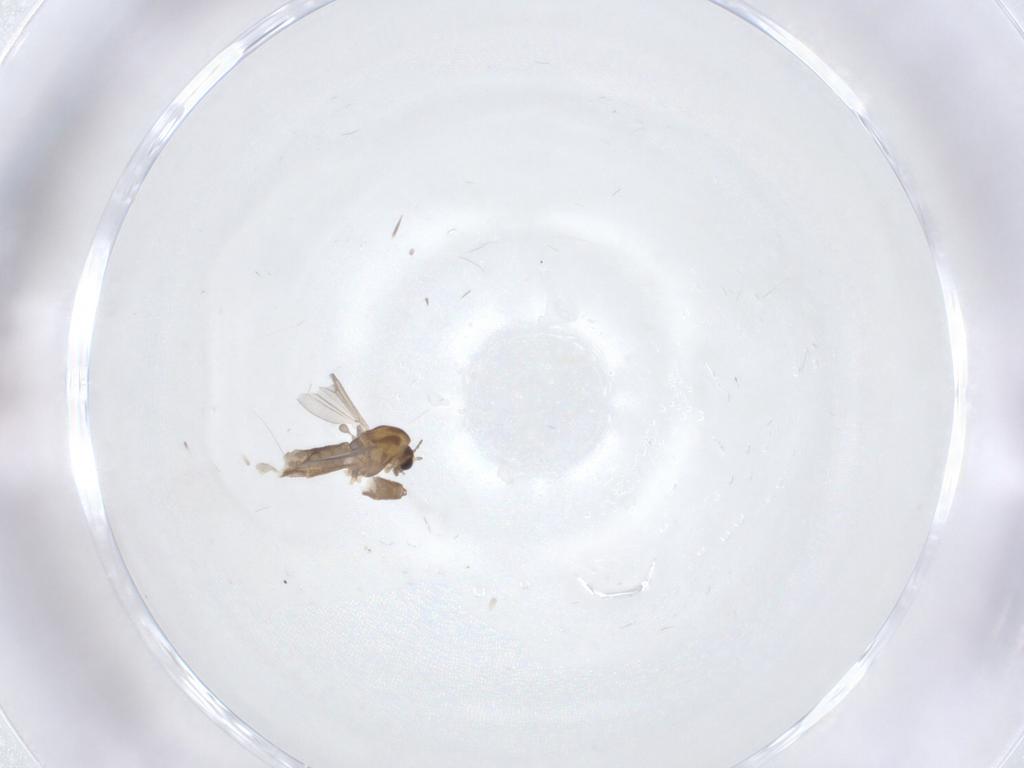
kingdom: Animalia
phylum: Arthropoda
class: Insecta
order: Diptera
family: Chironomidae
